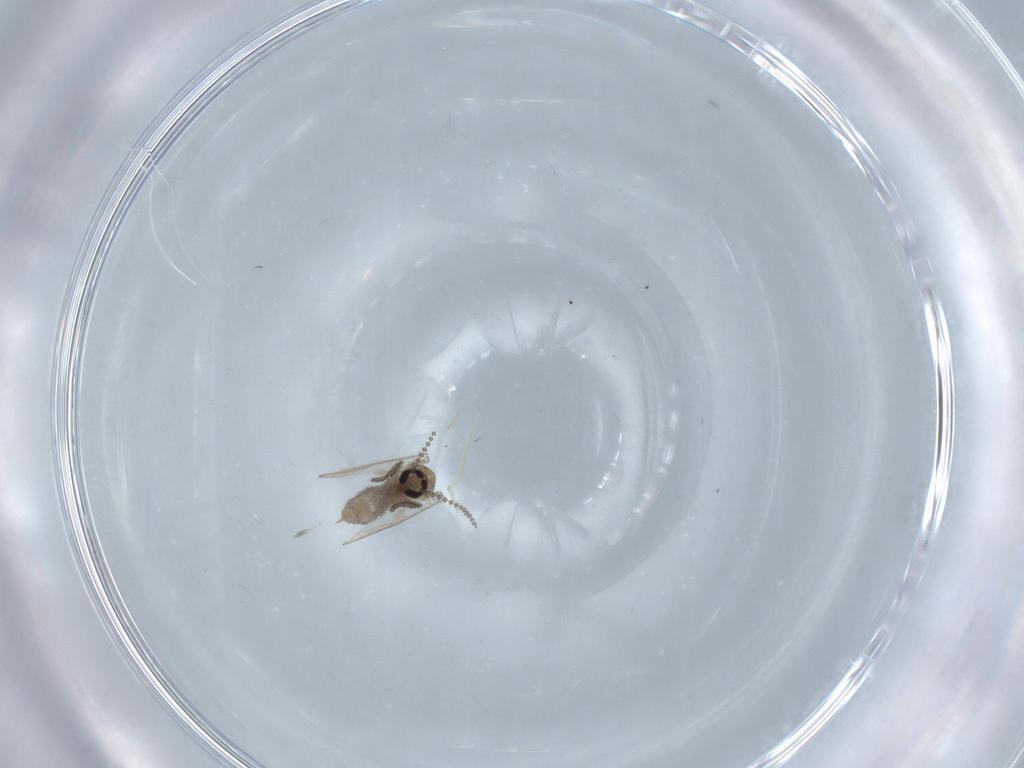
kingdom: Animalia
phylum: Arthropoda
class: Insecta
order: Diptera
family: Psychodidae
